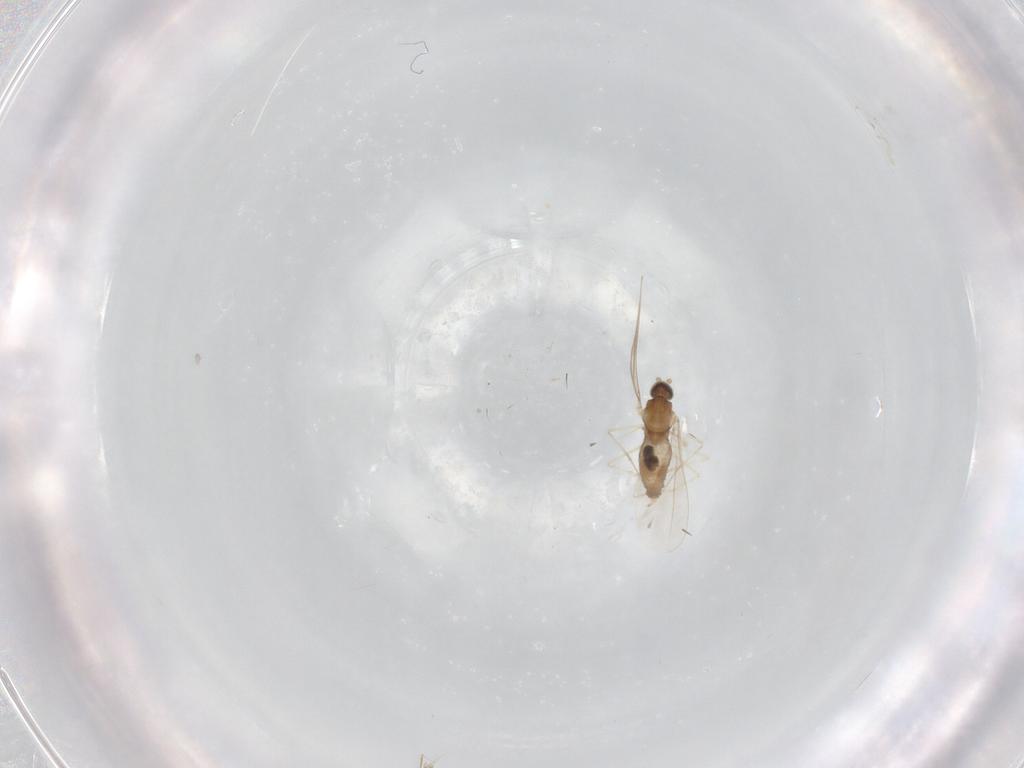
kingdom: Animalia
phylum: Arthropoda
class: Insecta
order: Diptera
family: Sciaridae
